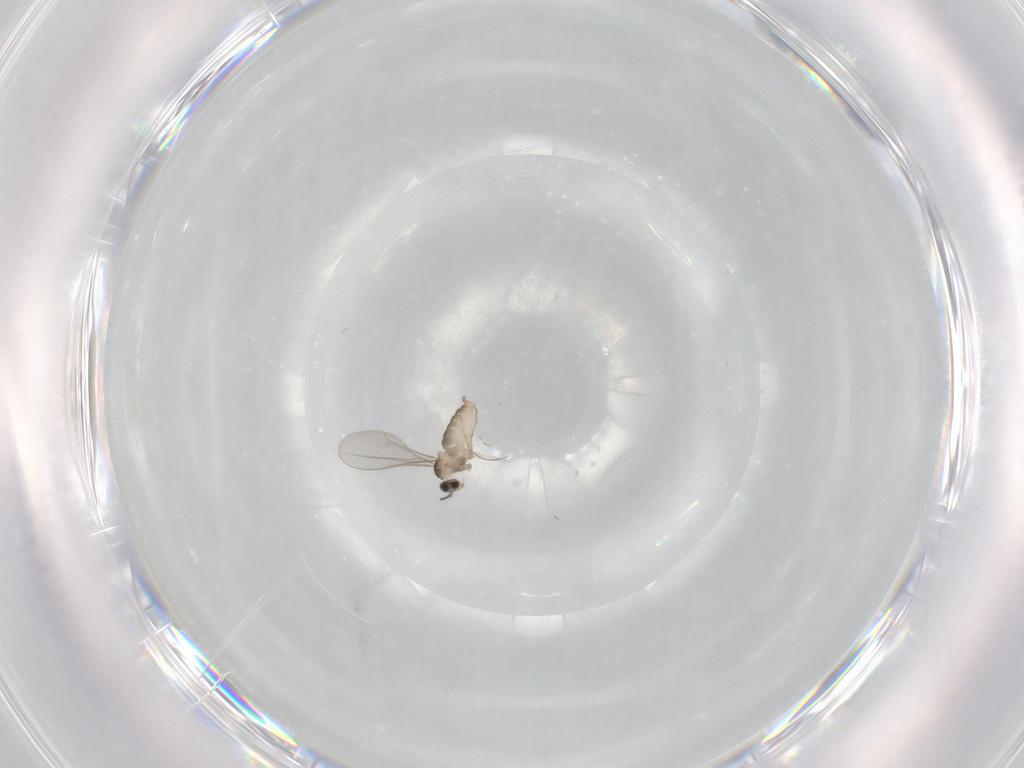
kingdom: Animalia
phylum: Arthropoda
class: Insecta
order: Diptera
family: Cecidomyiidae
